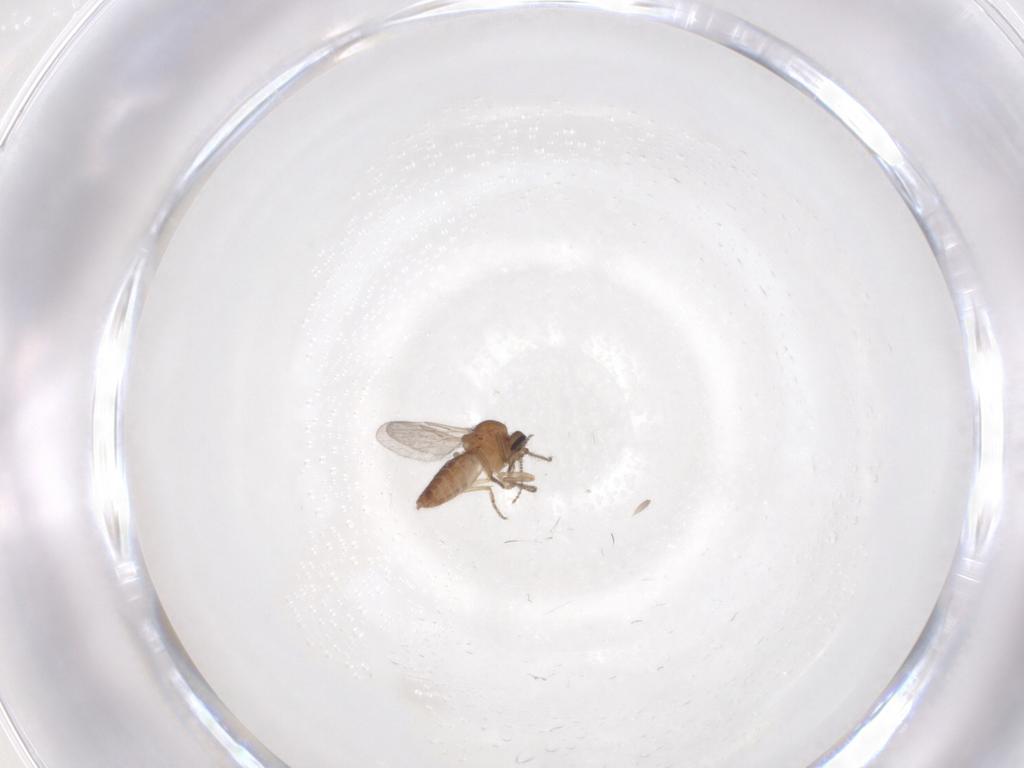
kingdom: Animalia
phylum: Arthropoda
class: Insecta
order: Diptera
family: Ceratopogonidae
